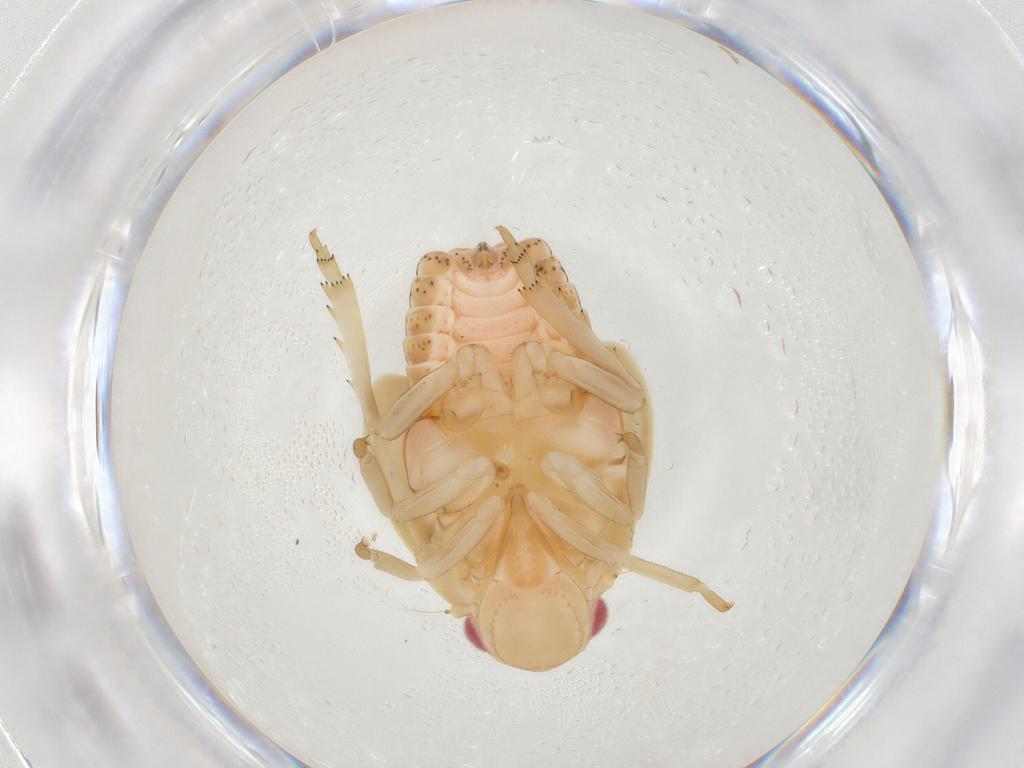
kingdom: Animalia
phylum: Arthropoda
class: Insecta
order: Hemiptera
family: Flatidae
